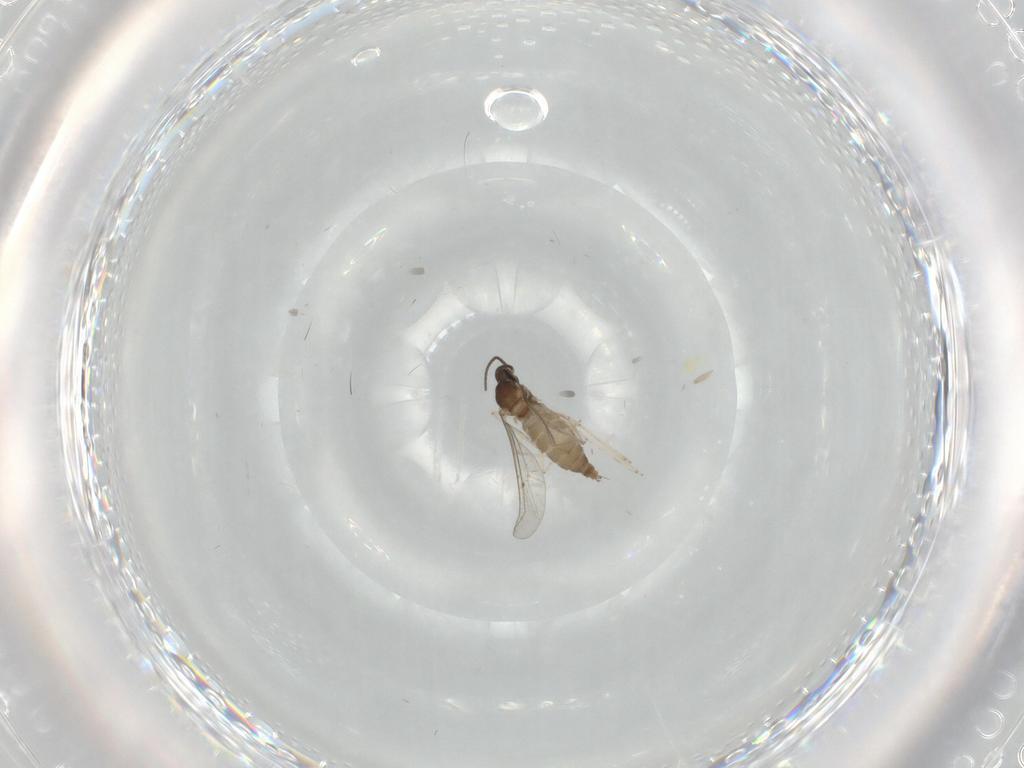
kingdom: Animalia
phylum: Arthropoda
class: Insecta
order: Diptera
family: Cecidomyiidae
